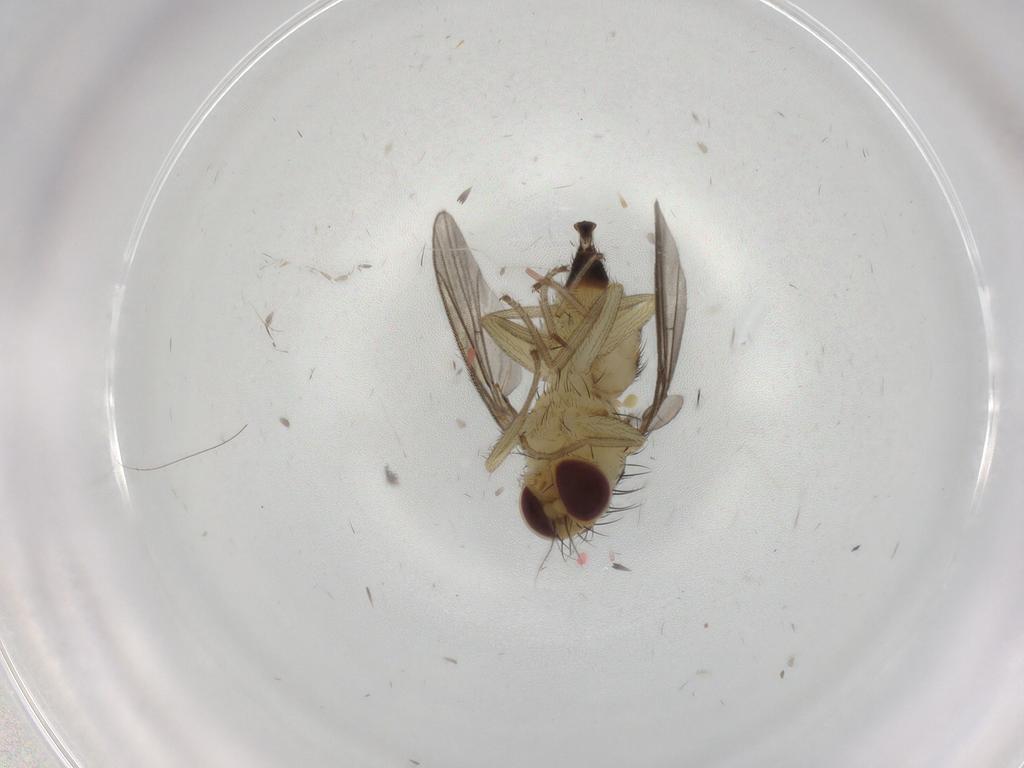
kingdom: Animalia
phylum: Arthropoda
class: Insecta
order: Diptera
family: Agromyzidae
